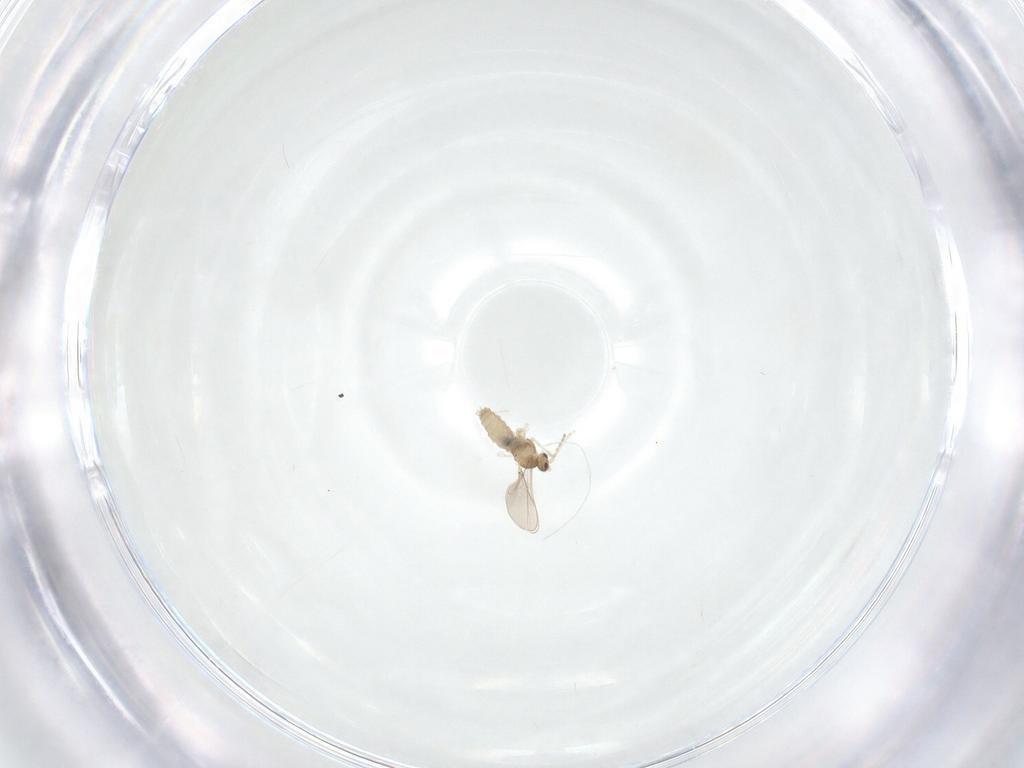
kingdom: Animalia
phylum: Arthropoda
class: Insecta
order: Diptera
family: Cecidomyiidae
